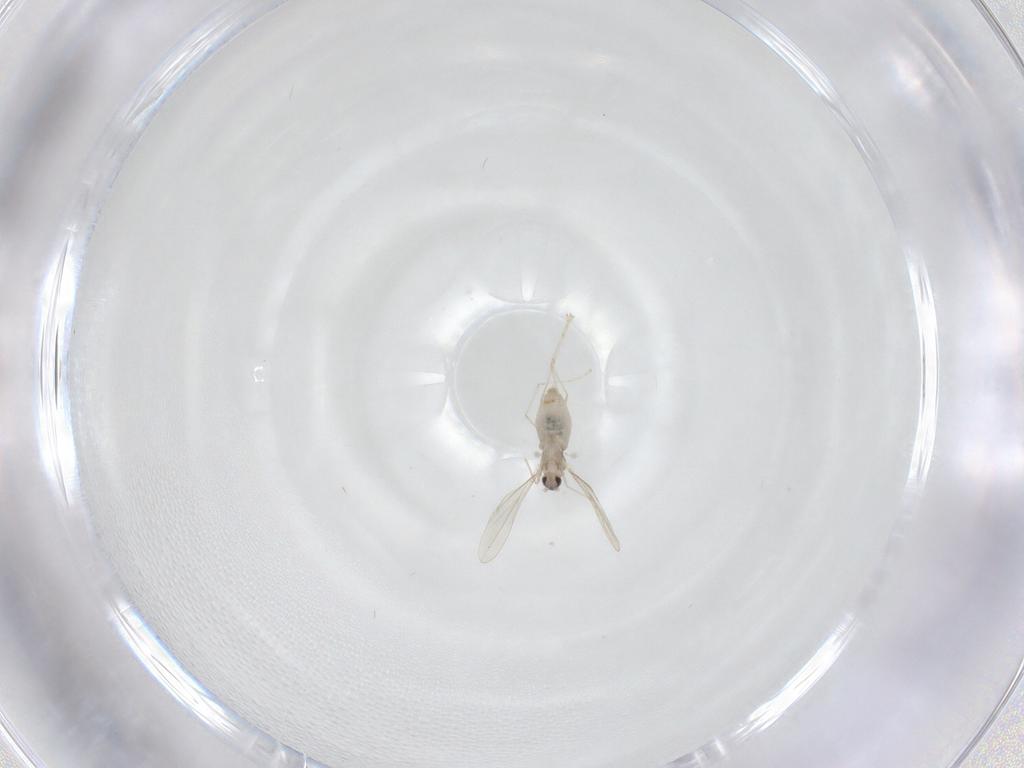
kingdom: Animalia
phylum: Arthropoda
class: Insecta
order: Diptera
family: Cecidomyiidae
